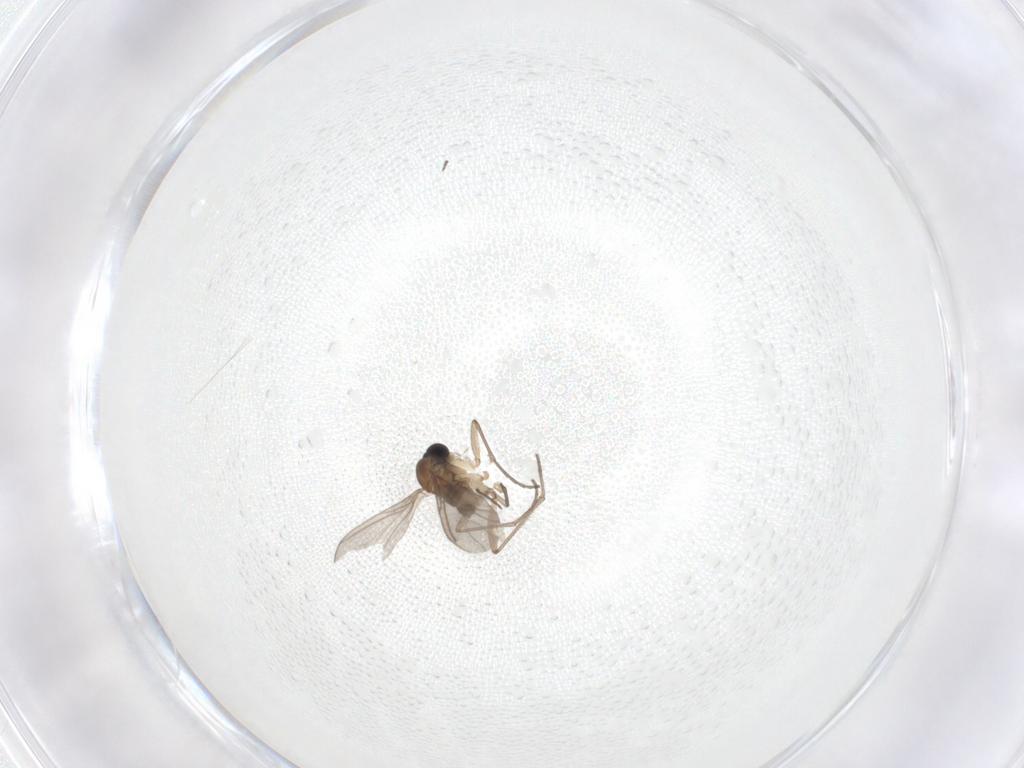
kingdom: Animalia
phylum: Arthropoda
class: Insecta
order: Diptera
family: Sciaridae
